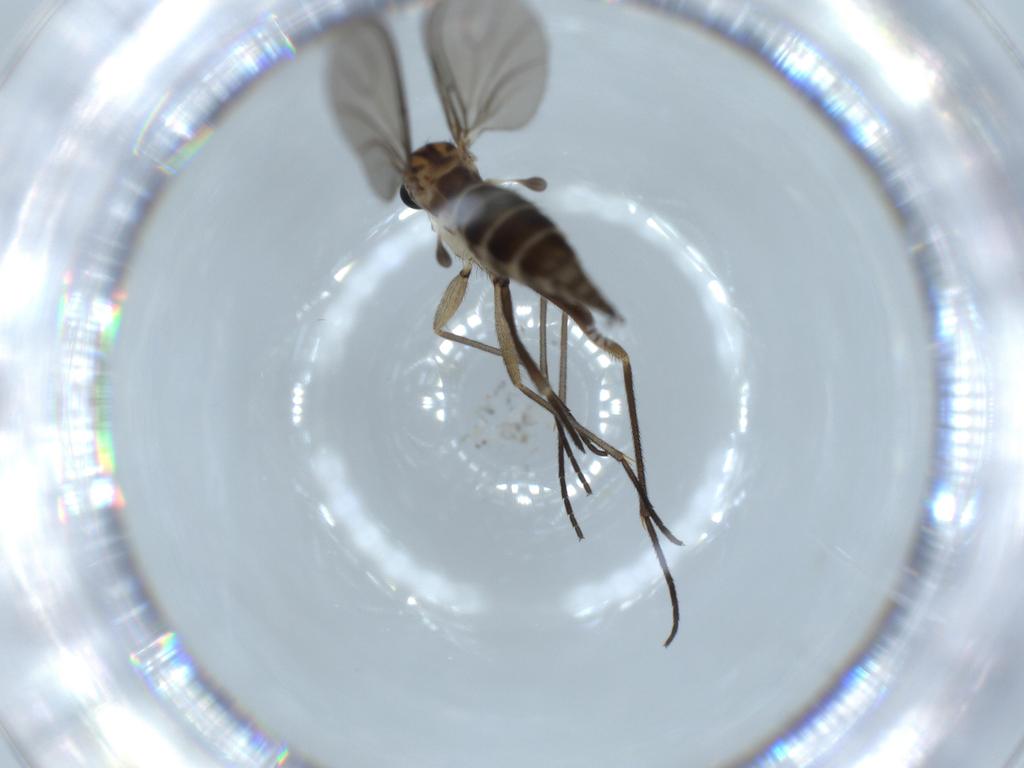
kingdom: Animalia
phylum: Arthropoda
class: Insecta
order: Diptera
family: Sciaridae
